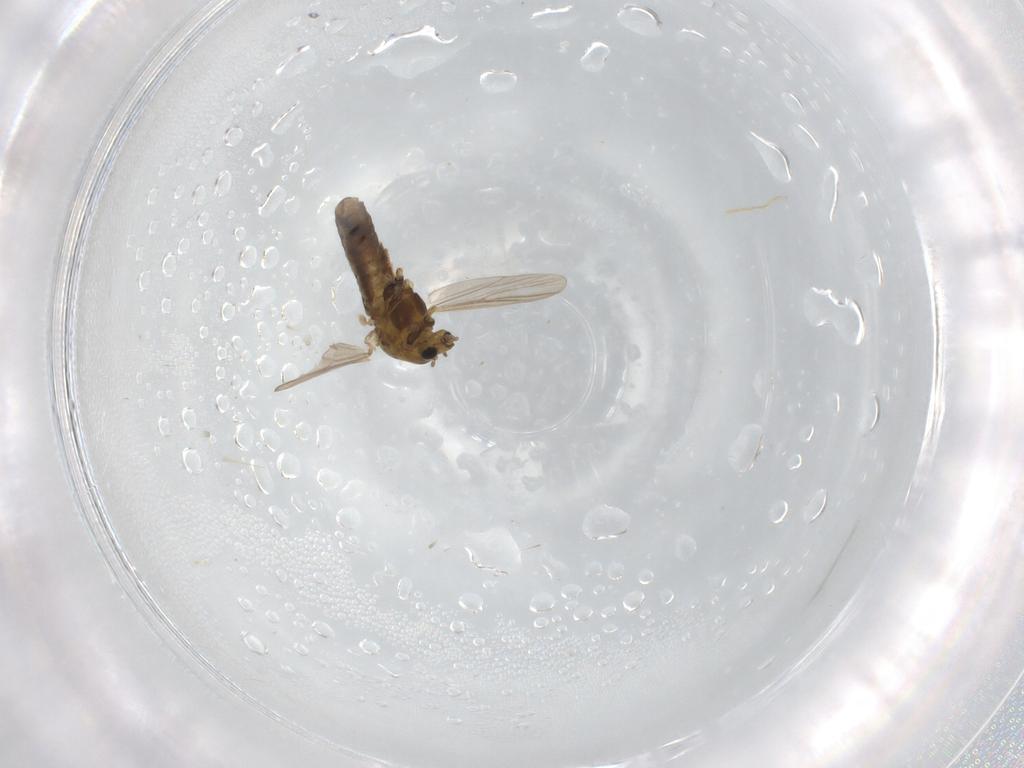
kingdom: Animalia
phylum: Arthropoda
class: Insecta
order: Diptera
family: Chironomidae
